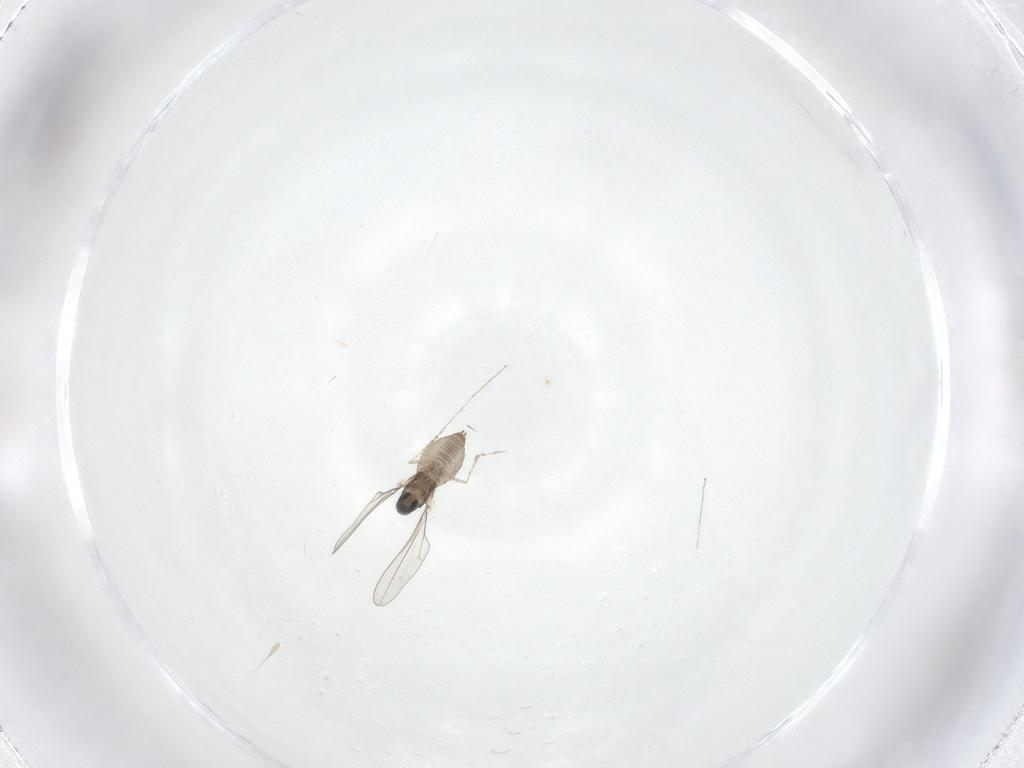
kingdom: Animalia
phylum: Arthropoda
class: Insecta
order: Diptera
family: Cecidomyiidae
